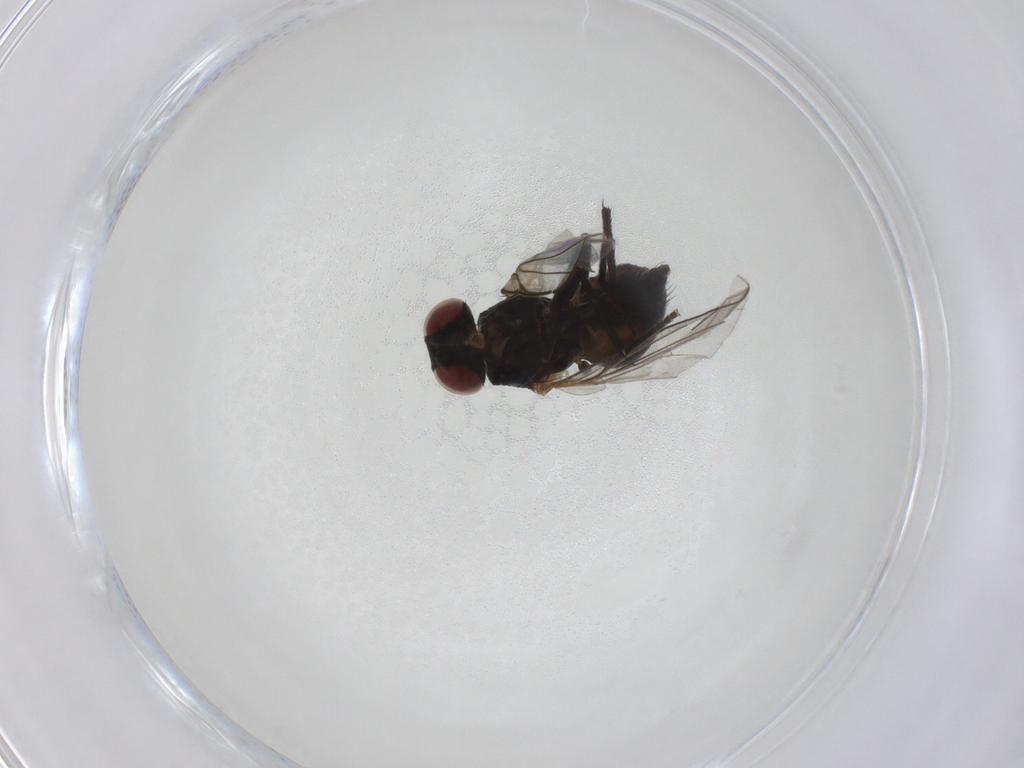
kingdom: Animalia
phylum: Arthropoda
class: Insecta
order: Diptera
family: Agromyzidae
